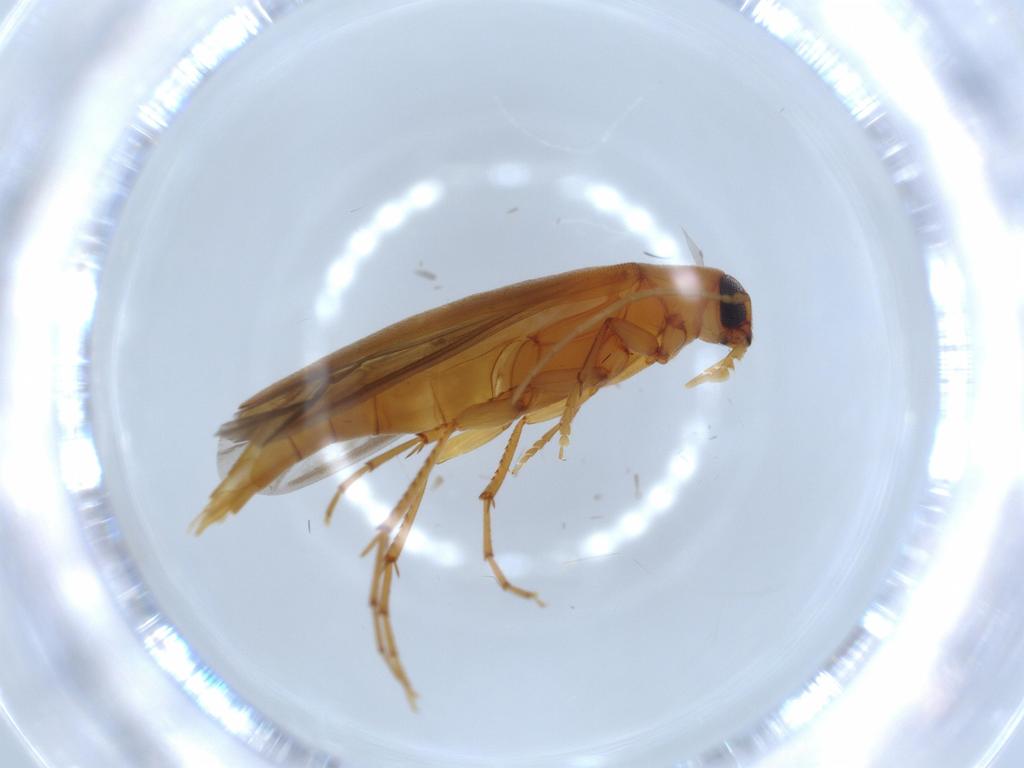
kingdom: Animalia
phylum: Arthropoda
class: Insecta
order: Coleoptera
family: Melandryidae
